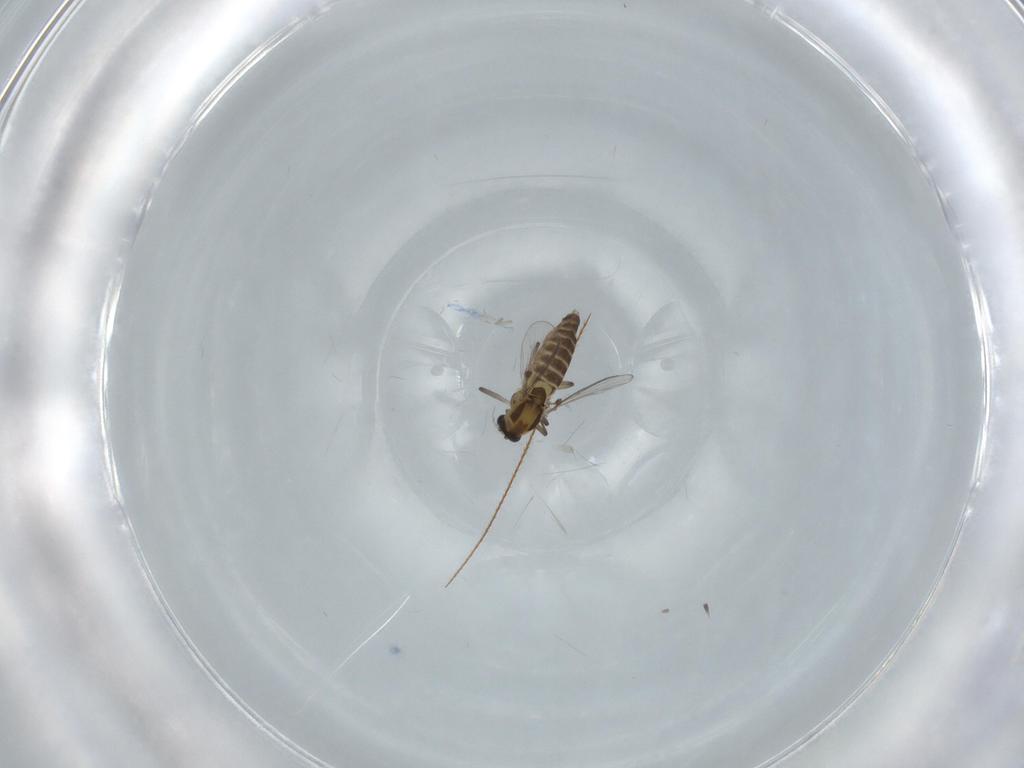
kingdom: Animalia
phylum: Arthropoda
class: Insecta
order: Diptera
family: Chironomidae
